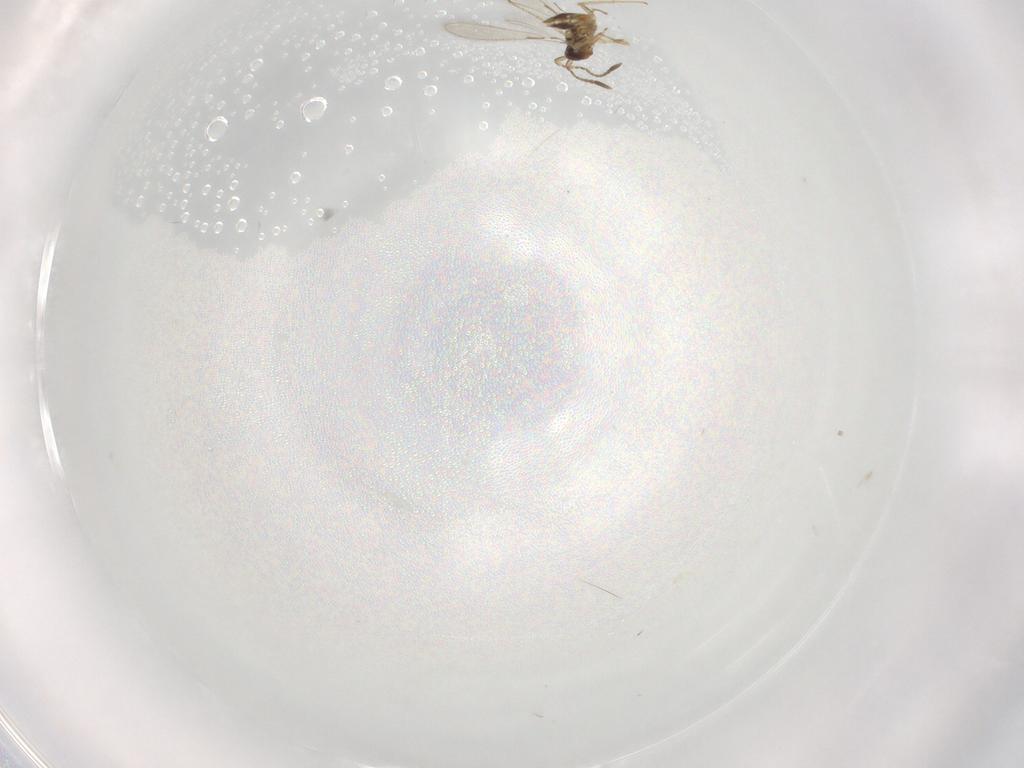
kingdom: Animalia
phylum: Arthropoda
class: Insecta
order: Hymenoptera
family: Mymaridae
